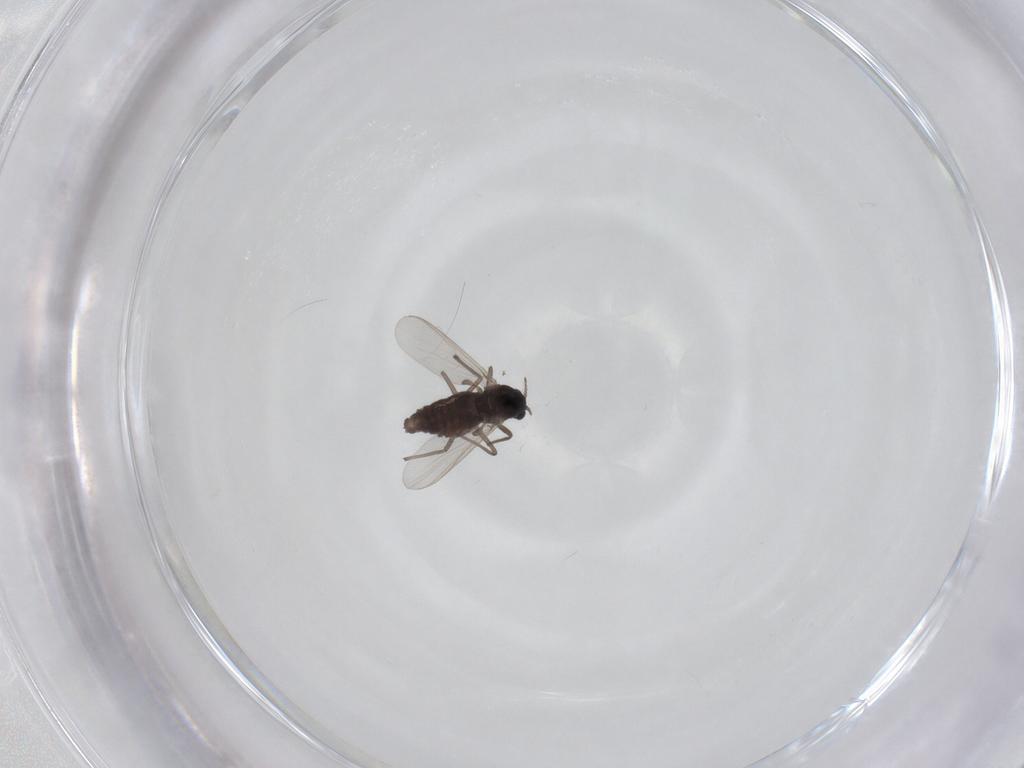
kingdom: Animalia
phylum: Arthropoda
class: Insecta
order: Diptera
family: Chironomidae
